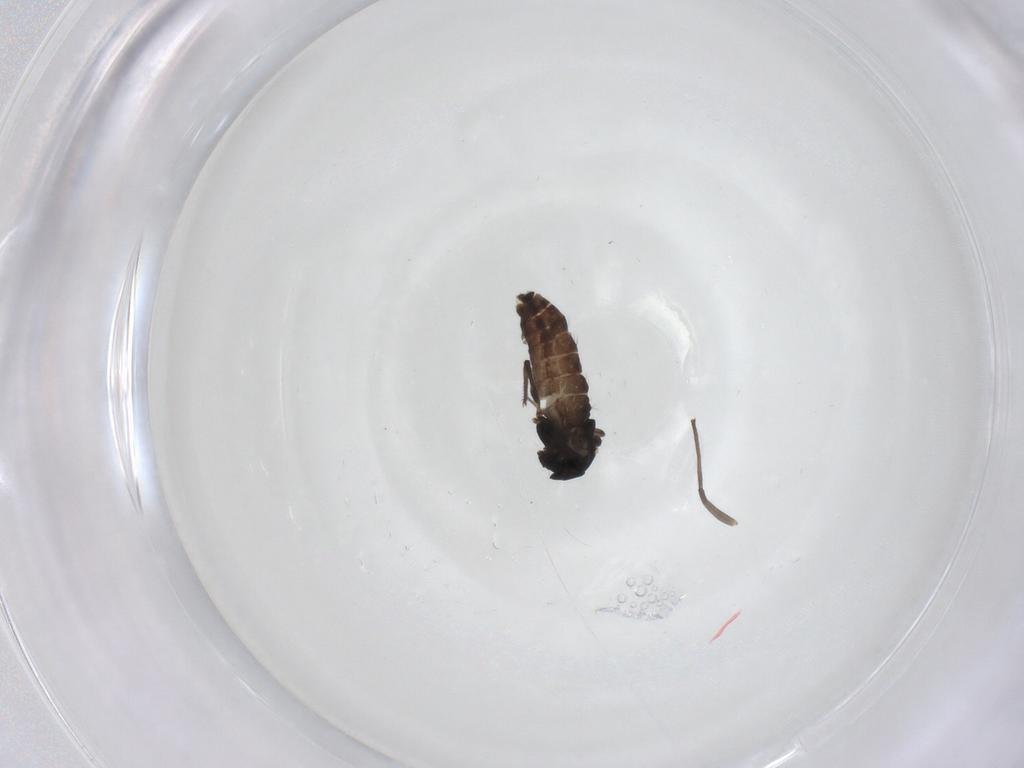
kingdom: Animalia
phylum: Arthropoda
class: Insecta
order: Diptera
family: Chironomidae
